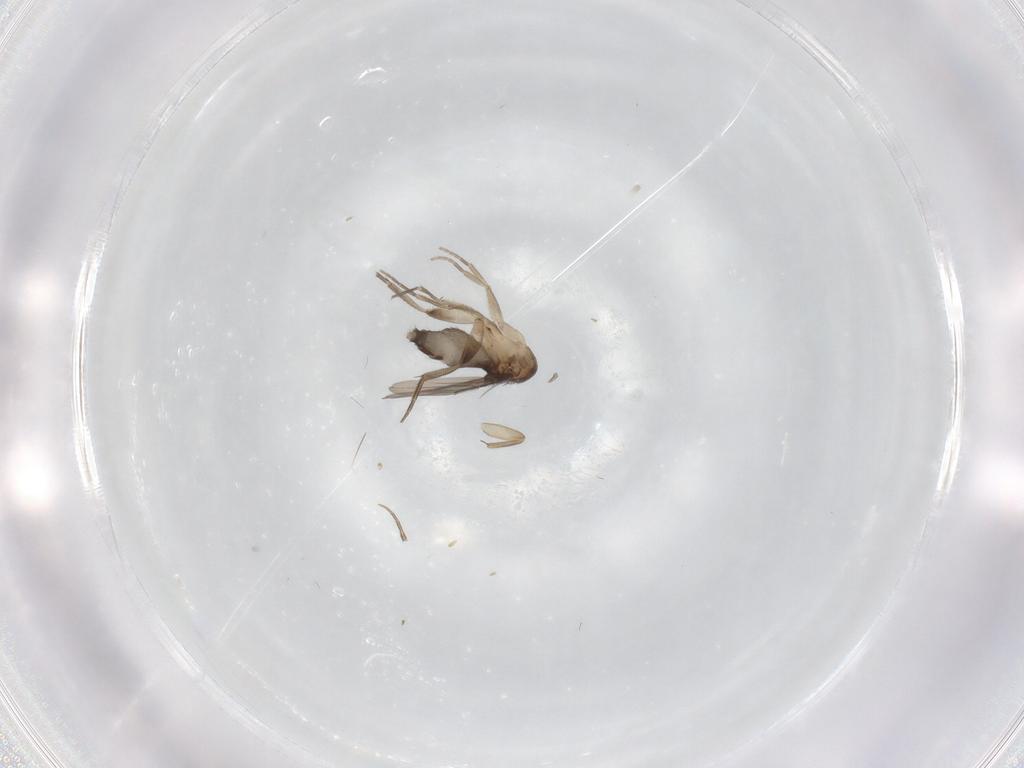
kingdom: Animalia
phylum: Arthropoda
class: Insecta
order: Diptera
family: Phoridae
